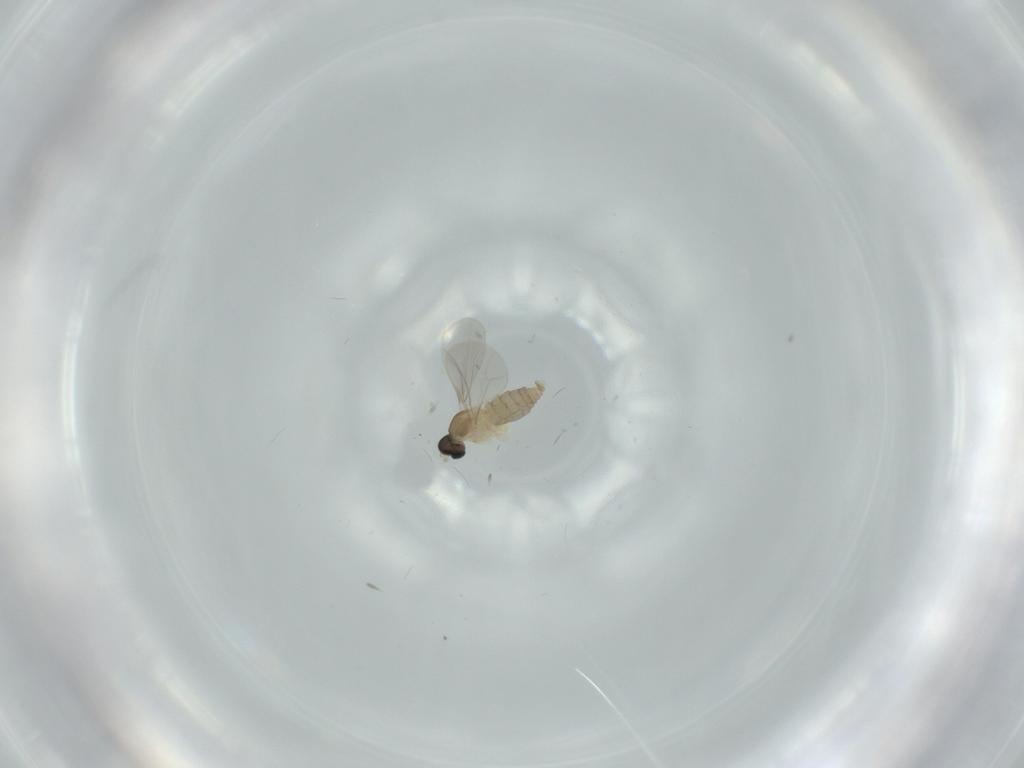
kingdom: Animalia
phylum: Arthropoda
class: Insecta
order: Diptera
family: Cecidomyiidae
